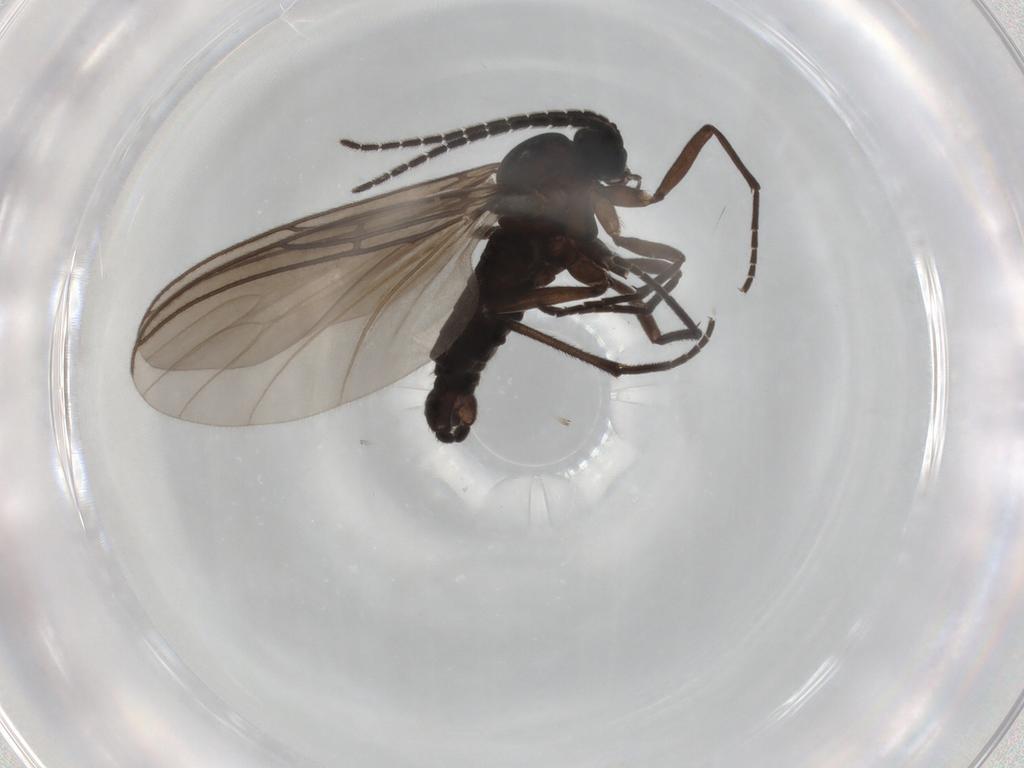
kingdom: Animalia
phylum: Arthropoda
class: Insecta
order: Diptera
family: Sciaridae
